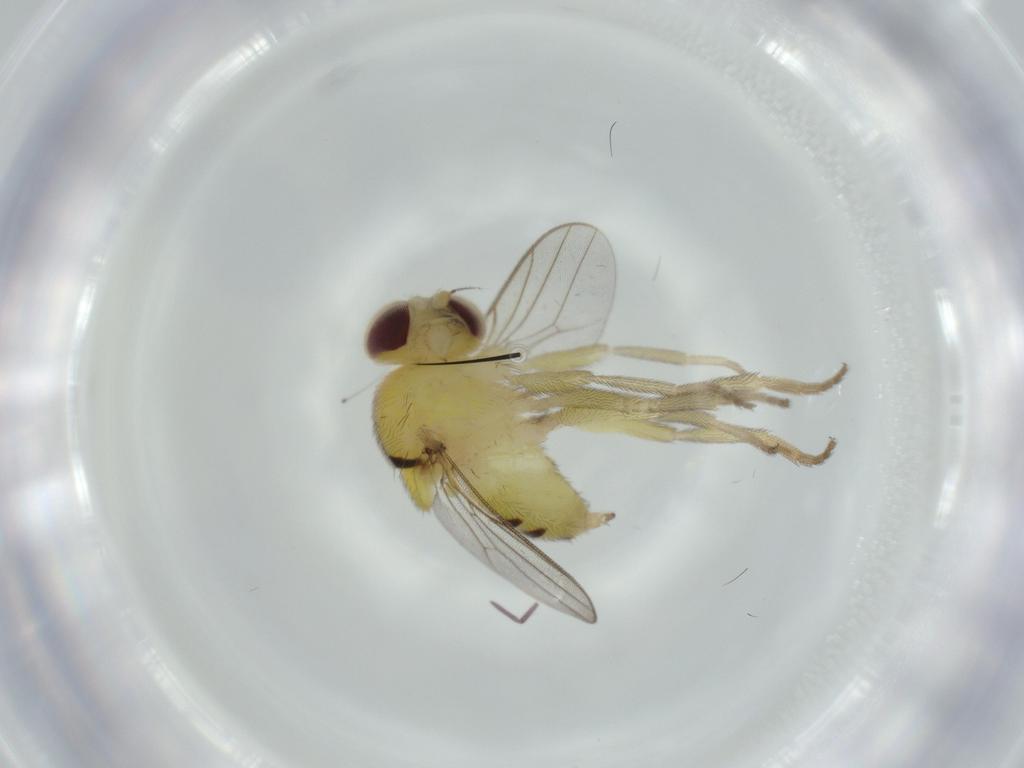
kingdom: Animalia
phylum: Arthropoda
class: Insecta
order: Diptera
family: Chloropidae
